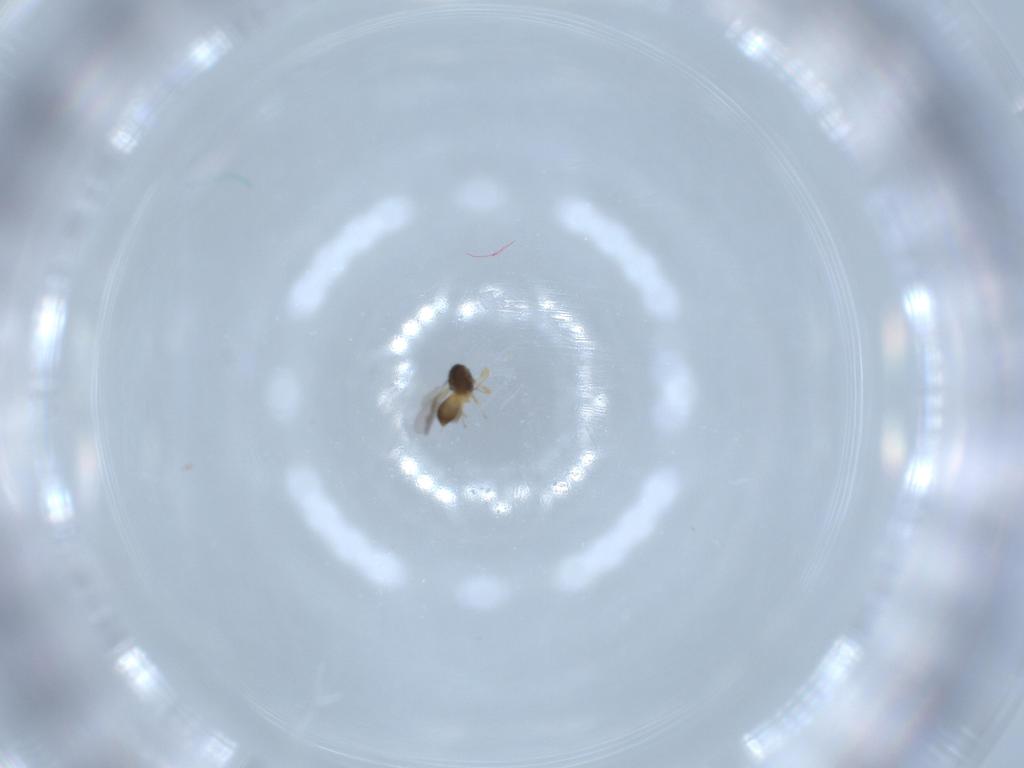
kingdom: Animalia
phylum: Arthropoda
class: Insecta
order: Hymenoptera
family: Scelionidae
